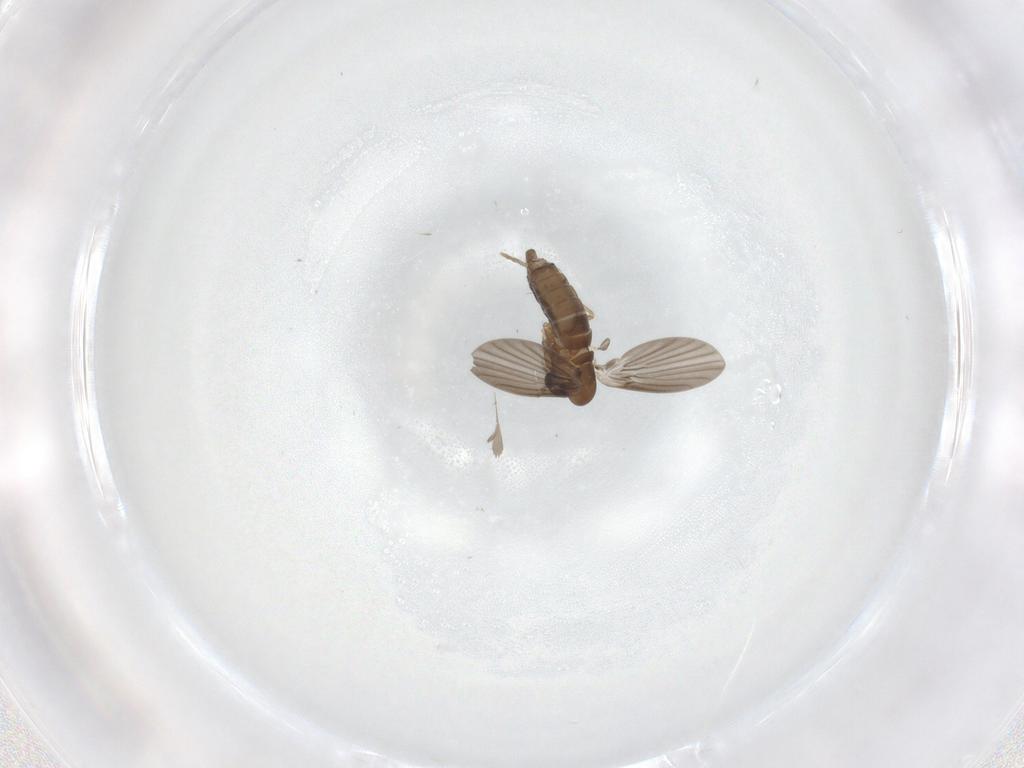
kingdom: Animalia
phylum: Arthropoda
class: Insecta
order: Diptera
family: Psychodidae
